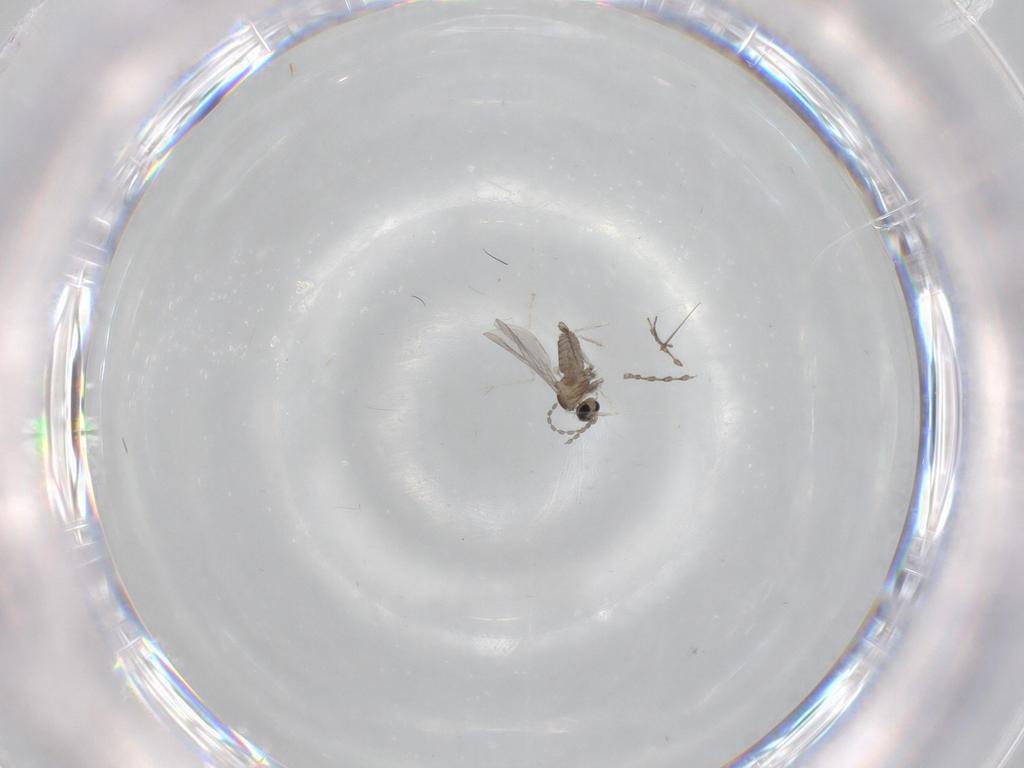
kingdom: Animalia
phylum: Arthropoda
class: Insecta
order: Diptera
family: Cecidomyiidae
